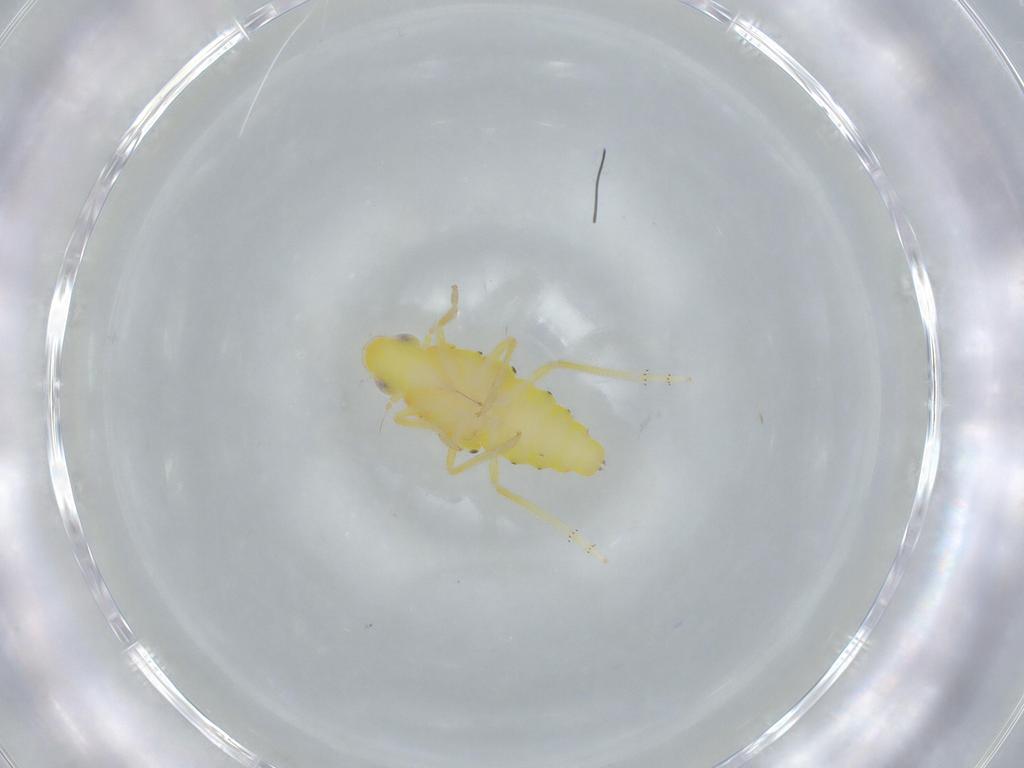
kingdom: Animalia
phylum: Arthropoda
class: Insecta
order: Hemiptera
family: Tropiduchidae
